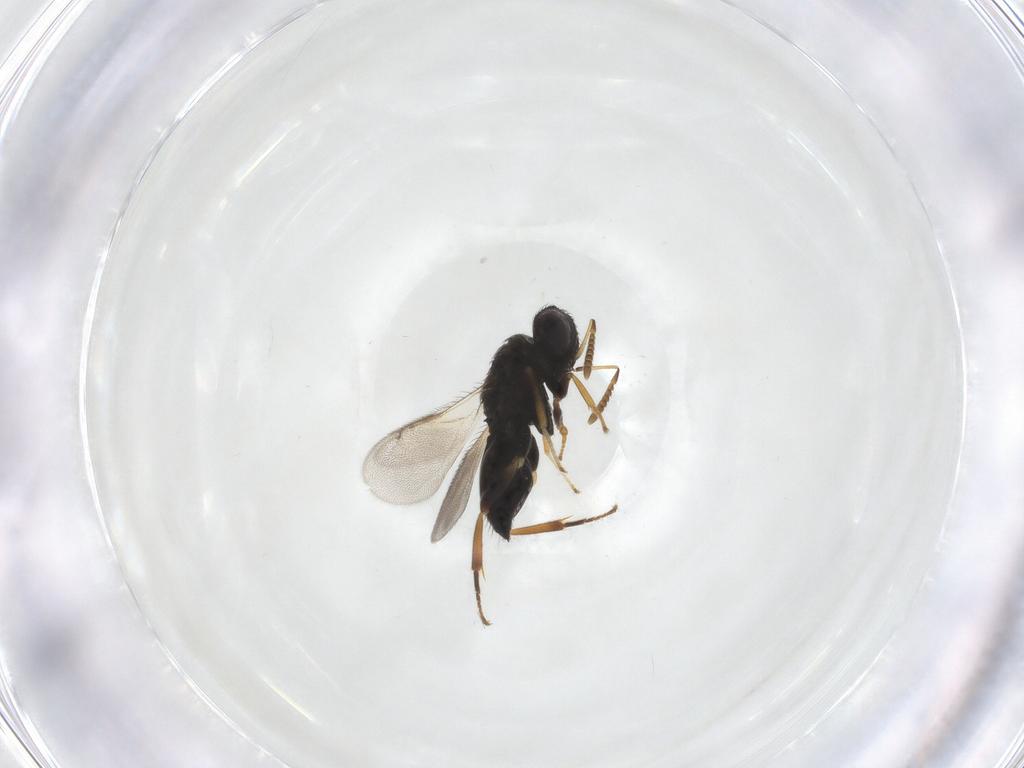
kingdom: Animalia
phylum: Arthropoda
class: Insecta
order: Hymenoptera
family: Pteromalidae
